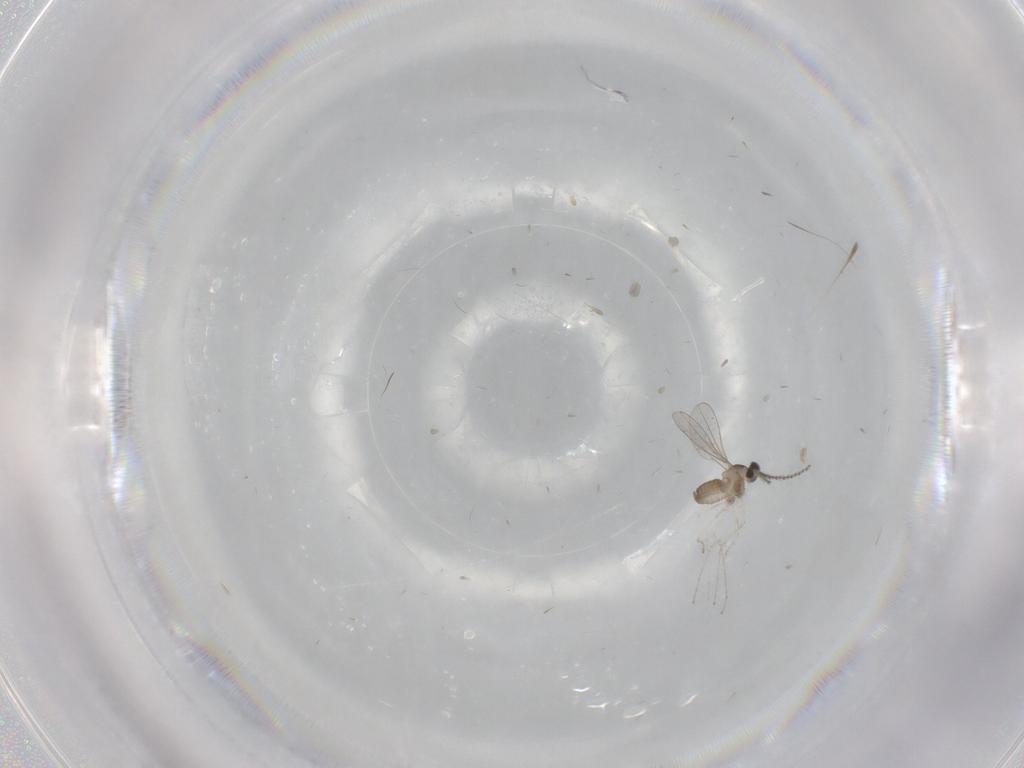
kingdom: Animalia
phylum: Arthropoda
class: Insecta
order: Diptera
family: Cecidomyiidae
